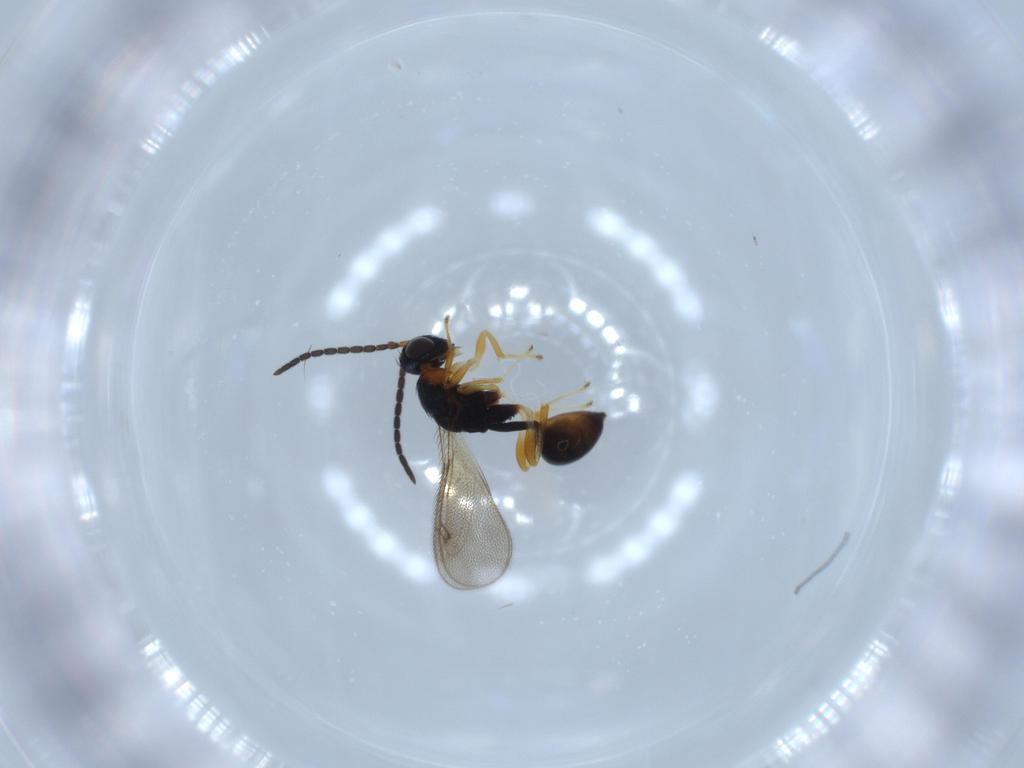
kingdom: Animalia
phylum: Arthropoda
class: Insecta
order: Hymenoptera
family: Diparidae
